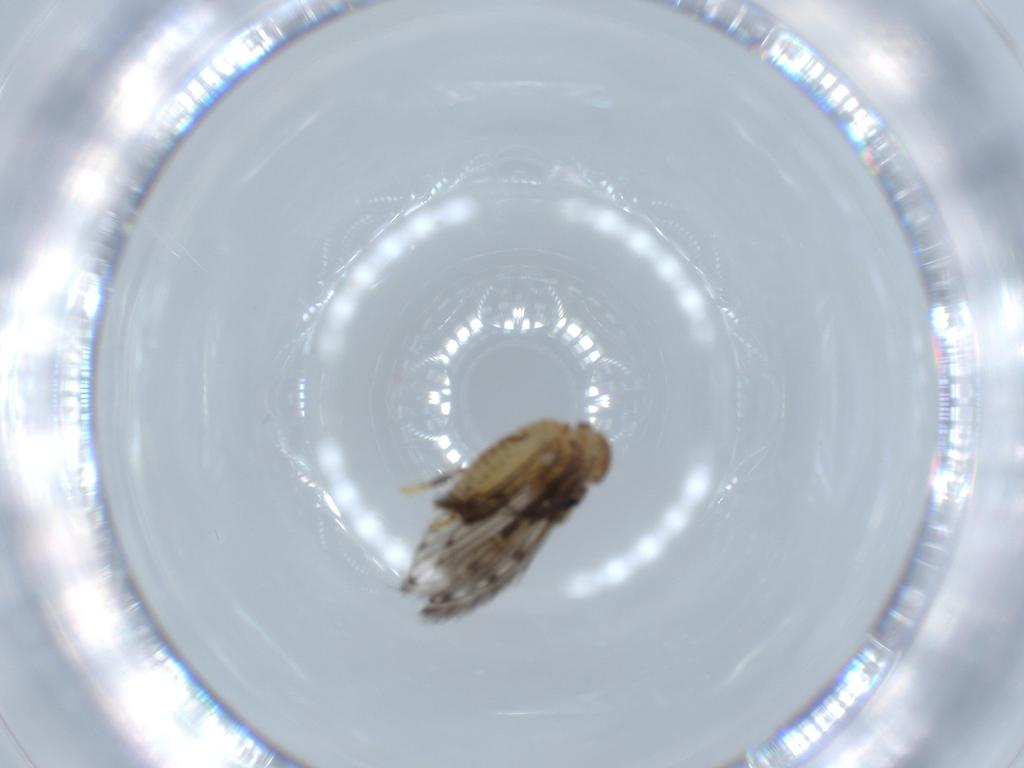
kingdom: Animalia
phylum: Arthropoda
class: Insecta
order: Diptera
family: Psychodidae
